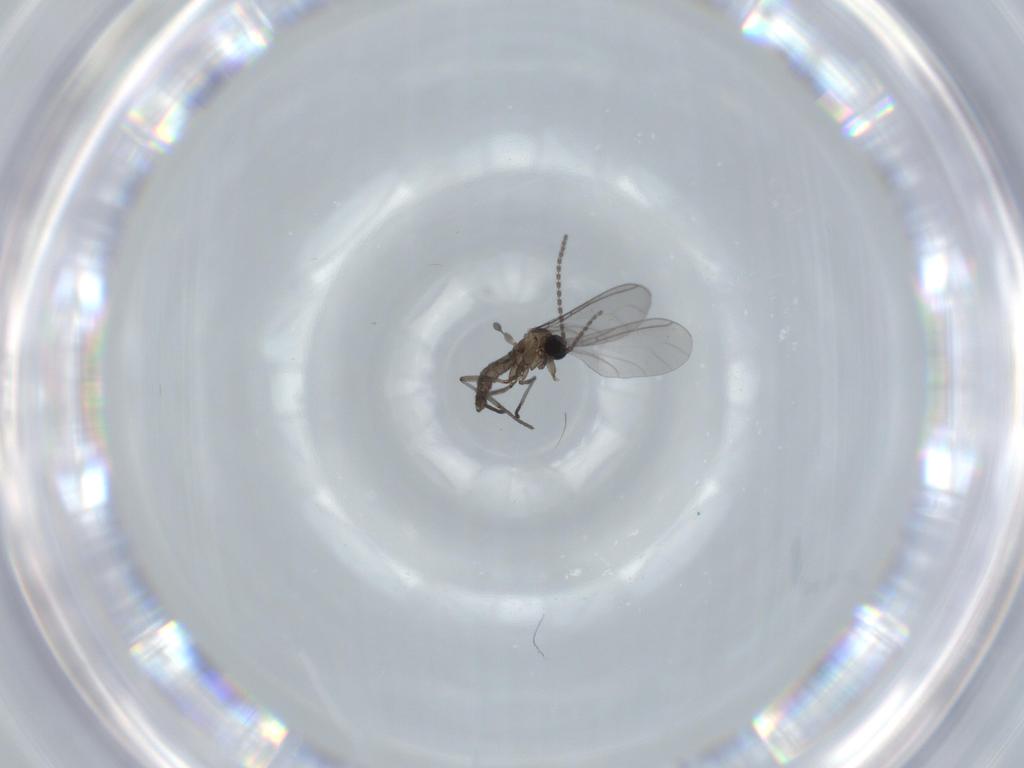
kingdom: Animalia
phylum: Arthropoda
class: Insecta
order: Diptera
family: Sciaridae
